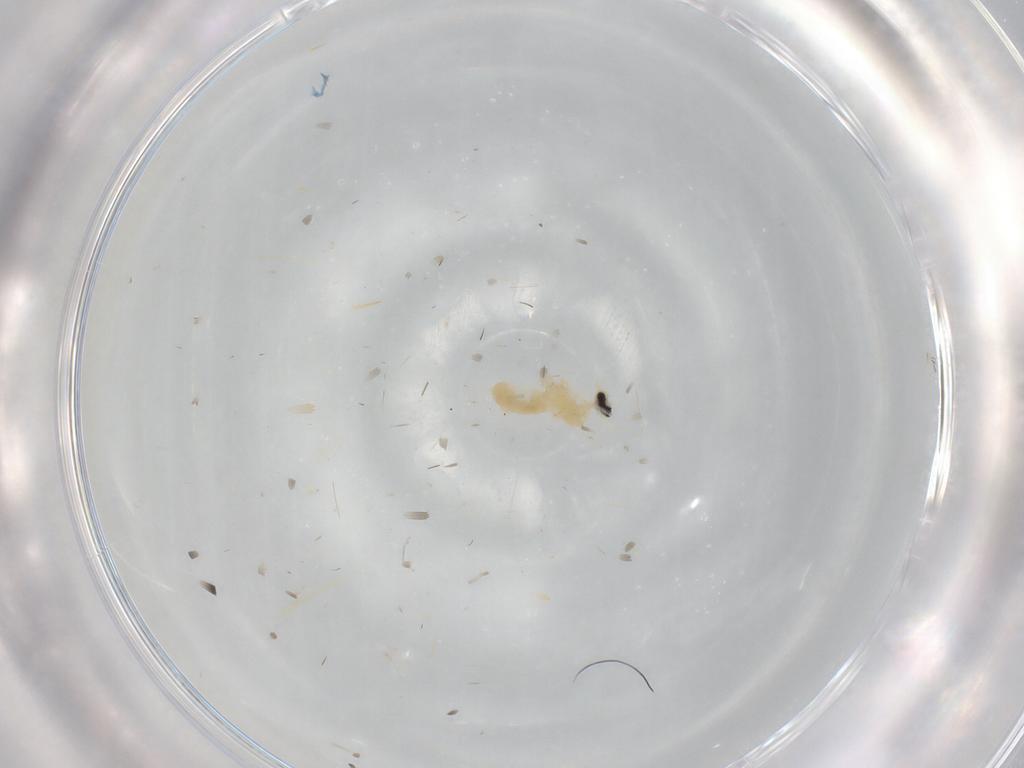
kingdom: Animalia
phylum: Arthropoda
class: Insecta
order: Diptera
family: Cecidomyiidae
